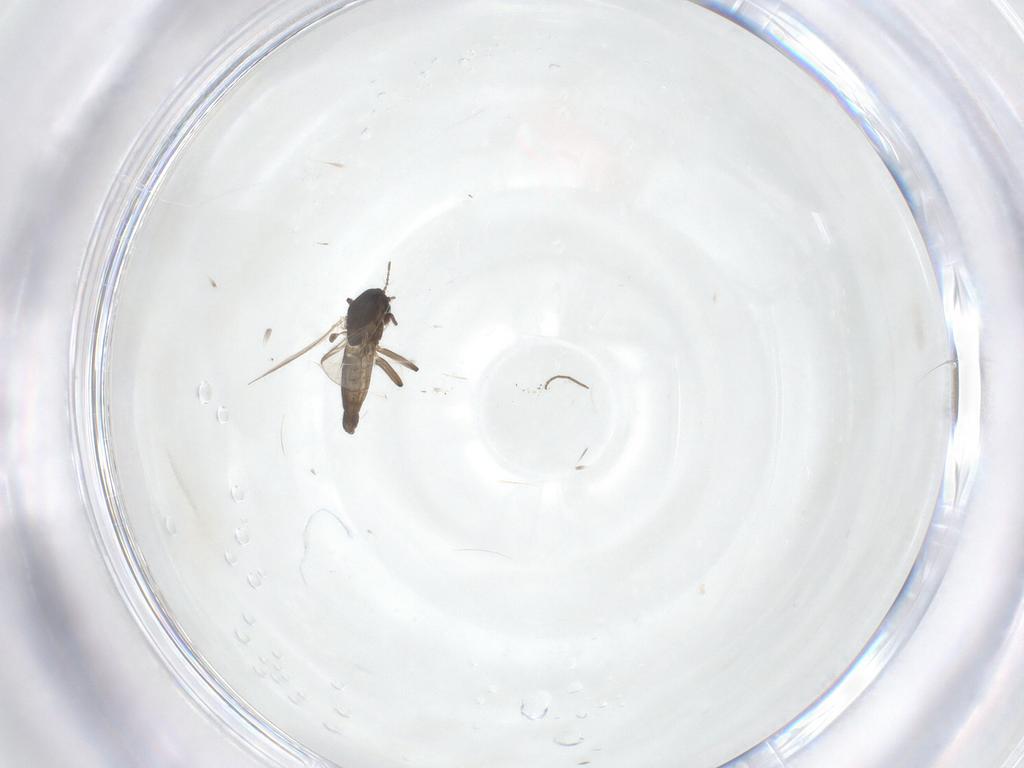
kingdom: Animalia
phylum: Arthropoda
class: Insecta
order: Diptera
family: Chironomidae
